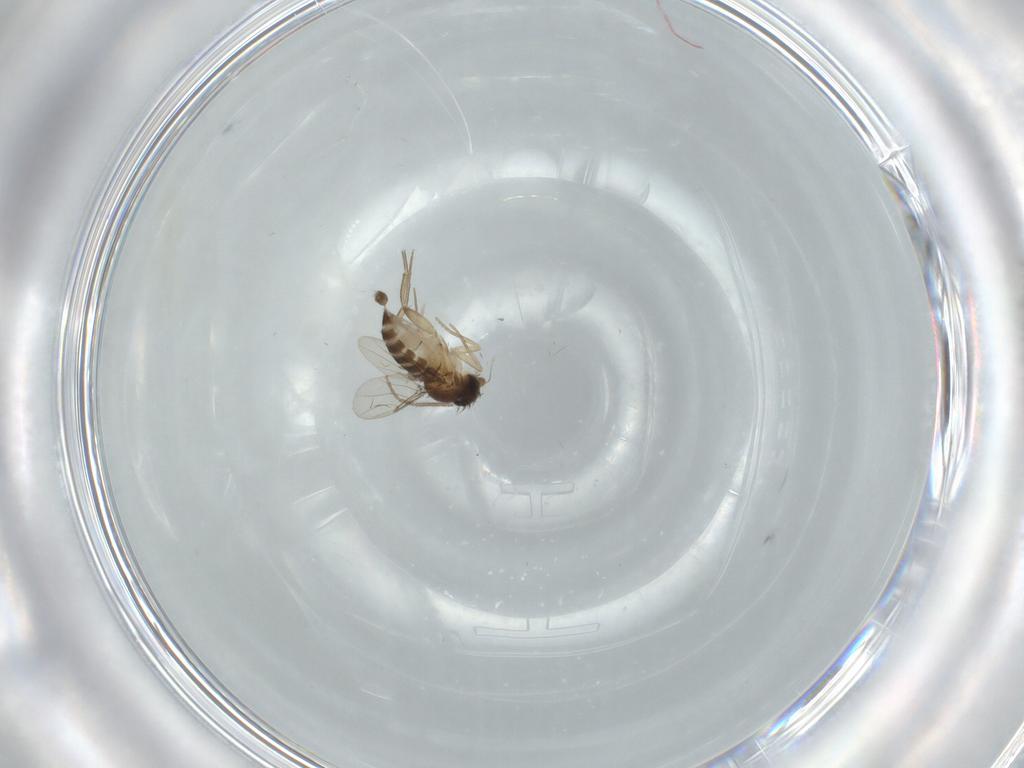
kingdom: Animalia
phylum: Arthropoda
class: Insecta
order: Diptera
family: Phoridae
